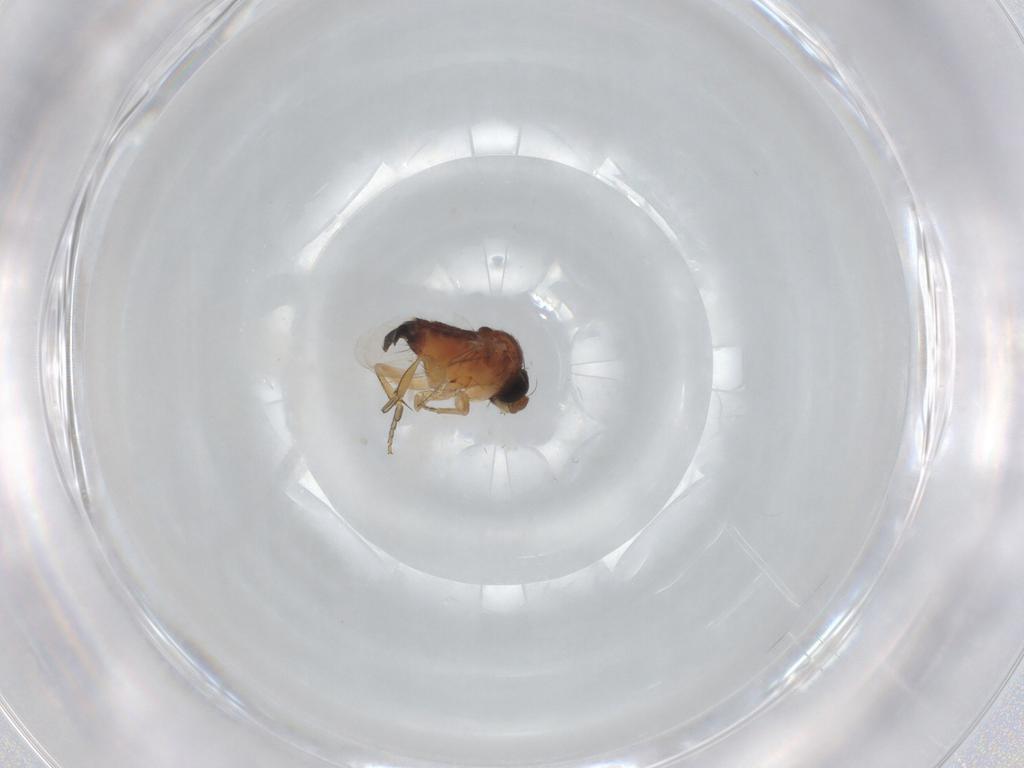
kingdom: Animalia
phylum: Arthropoda
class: Insecta
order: Diptera
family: Phoridae
